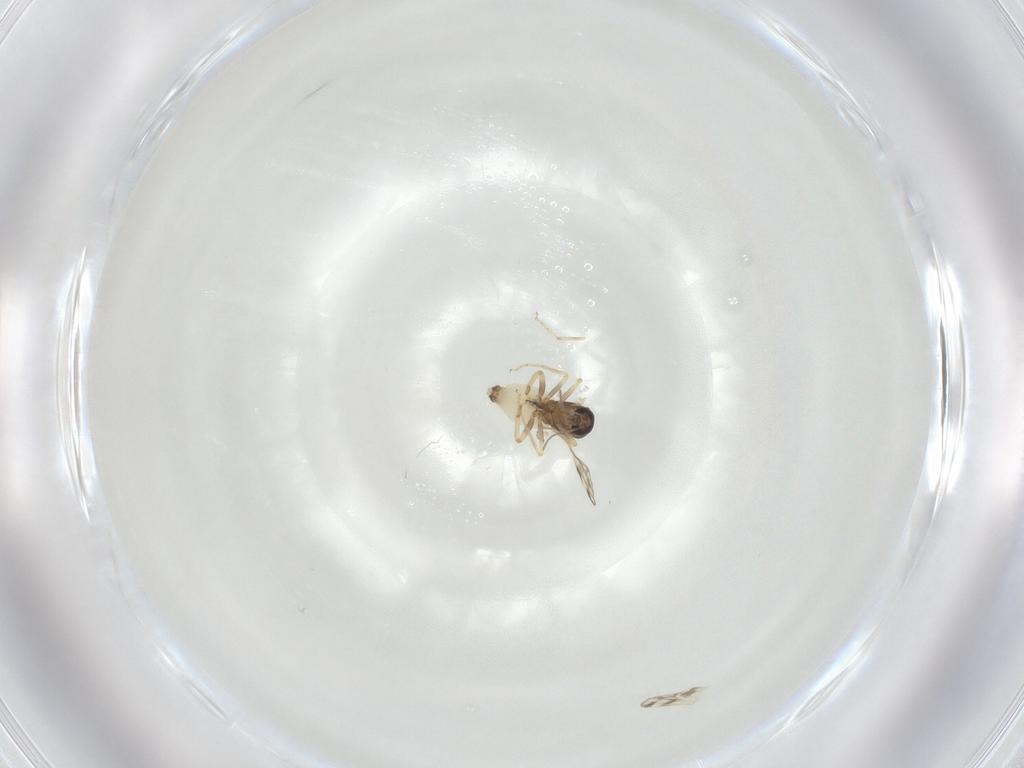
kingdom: Animalia
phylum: Arthropoda
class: Insecta
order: Diptera
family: Ceratopogonidae
